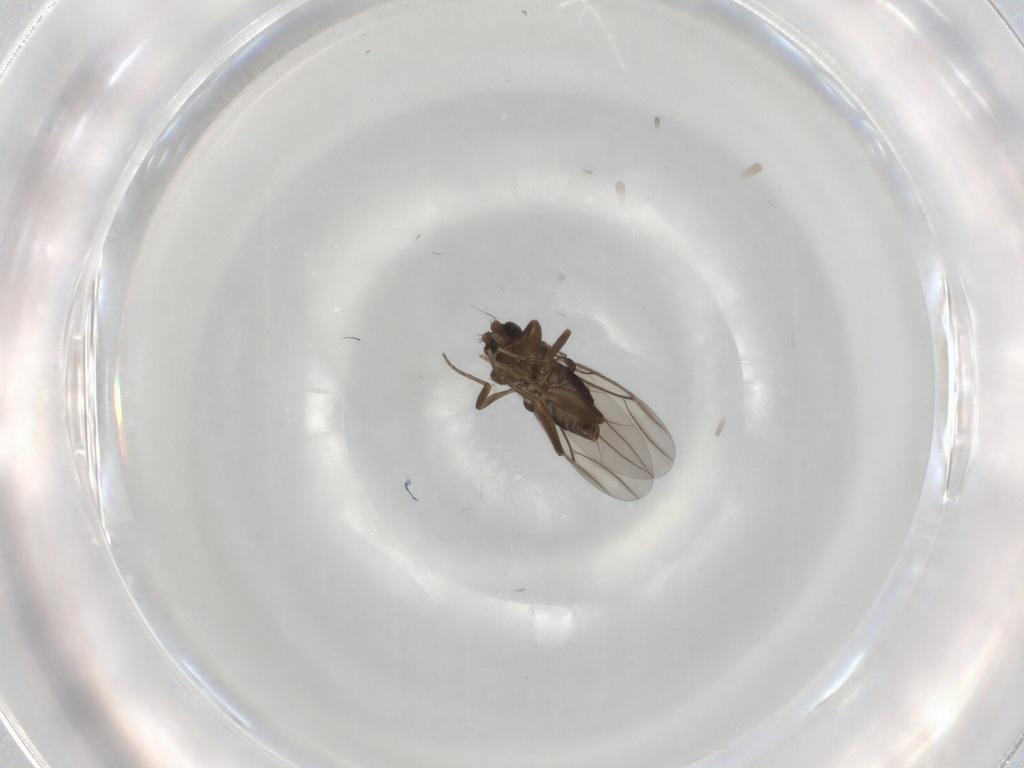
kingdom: Animalia
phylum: Arthropoda
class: Insecta
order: Diptera
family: Phoridae
